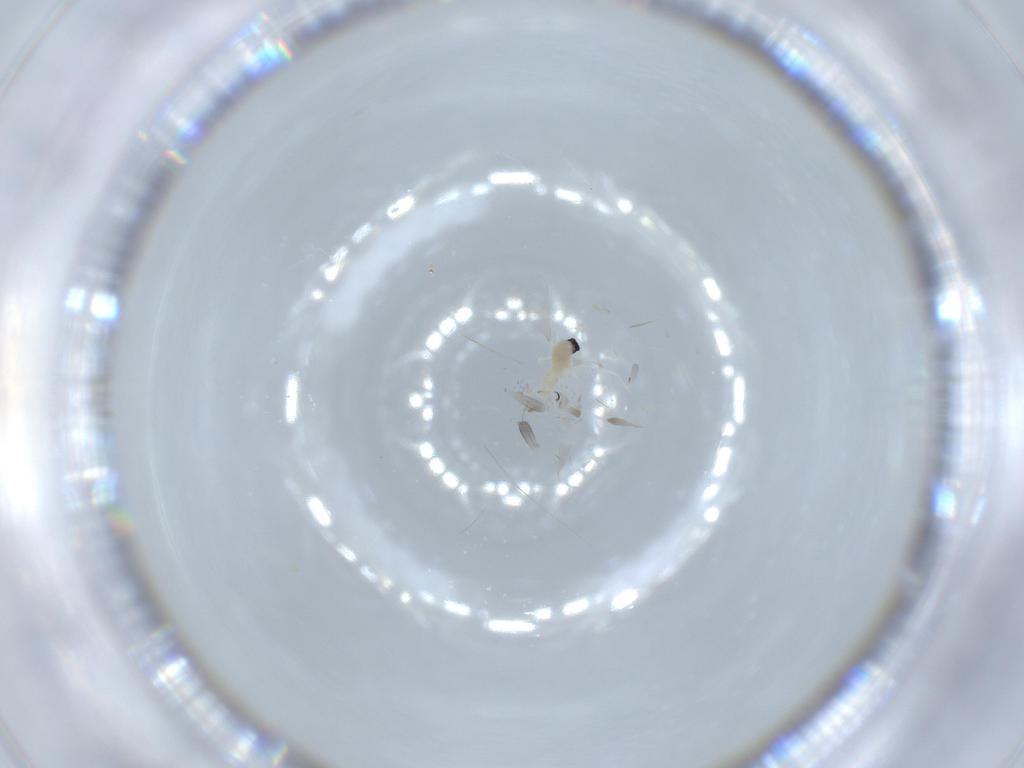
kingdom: Animalia
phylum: Arthropoda
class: Insecta
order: Diptera
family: Cecidomyiidae
